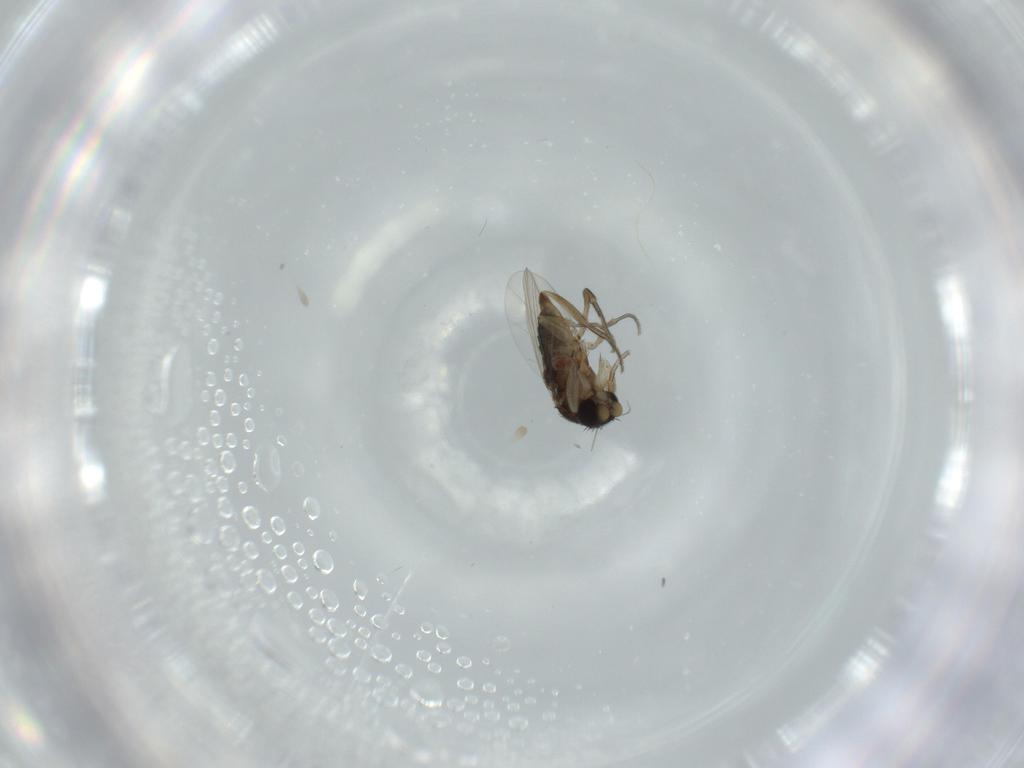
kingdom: Animalia
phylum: Arthropoda
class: Insecta
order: Diptera
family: Phoridae
